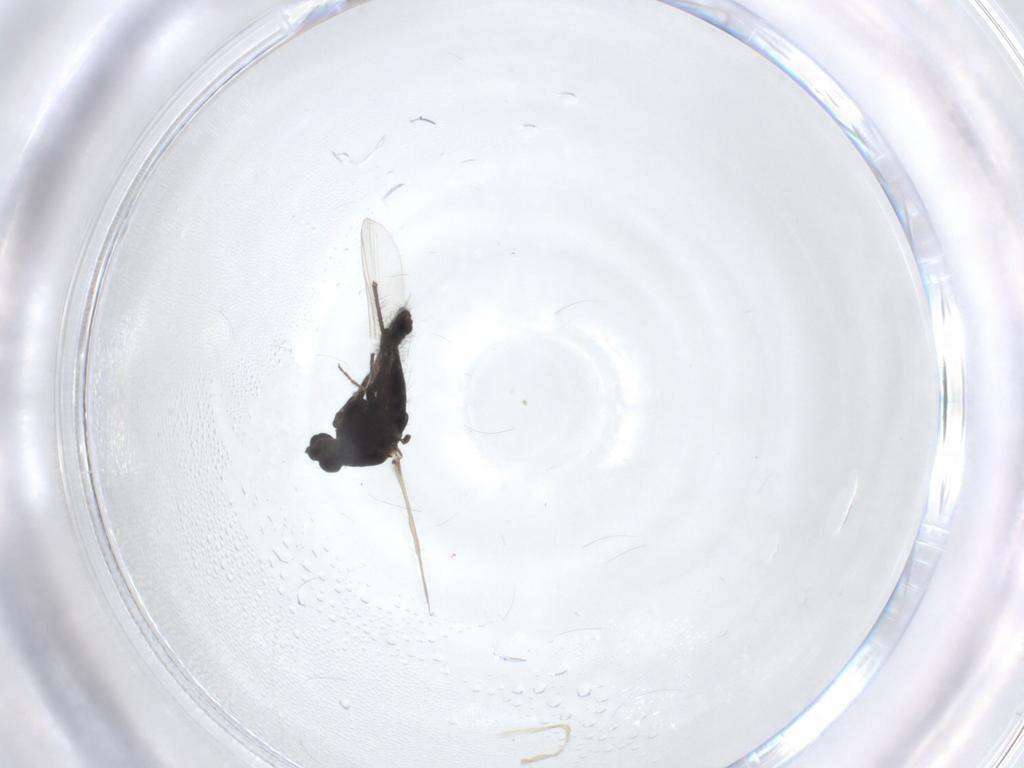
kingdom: Animalia
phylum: Arthropoda
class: Insecta
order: Diptera
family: Chironomidae
